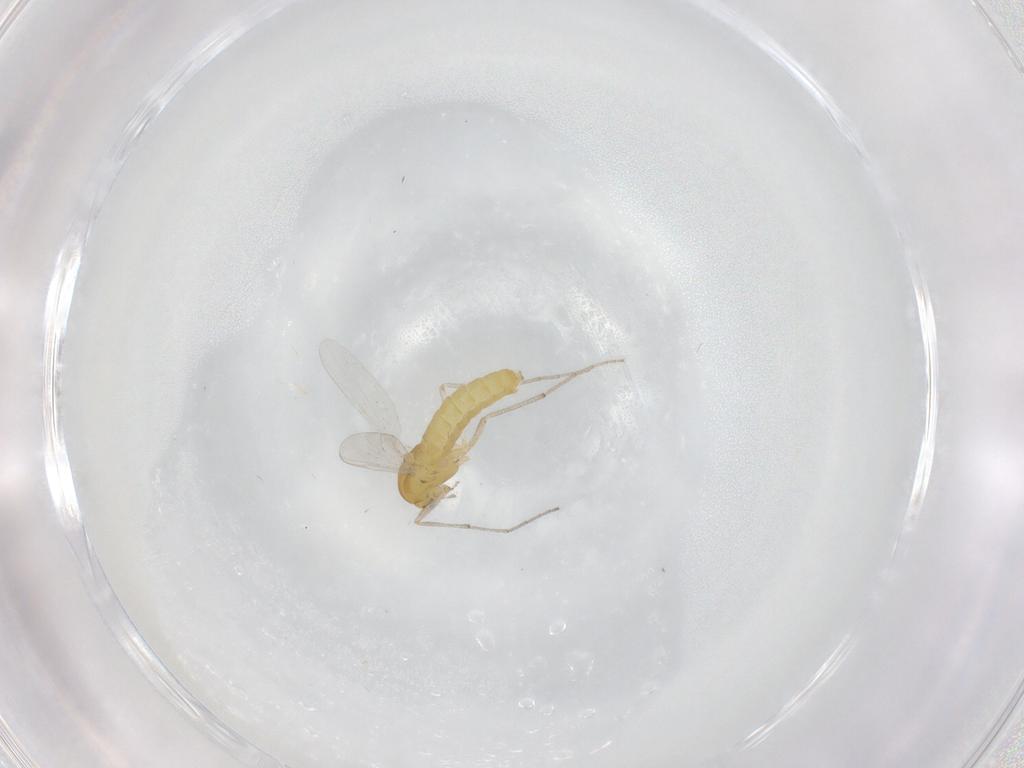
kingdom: Animalia
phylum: Arthropoda
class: Insecta
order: Diptera
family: Chironomidae
